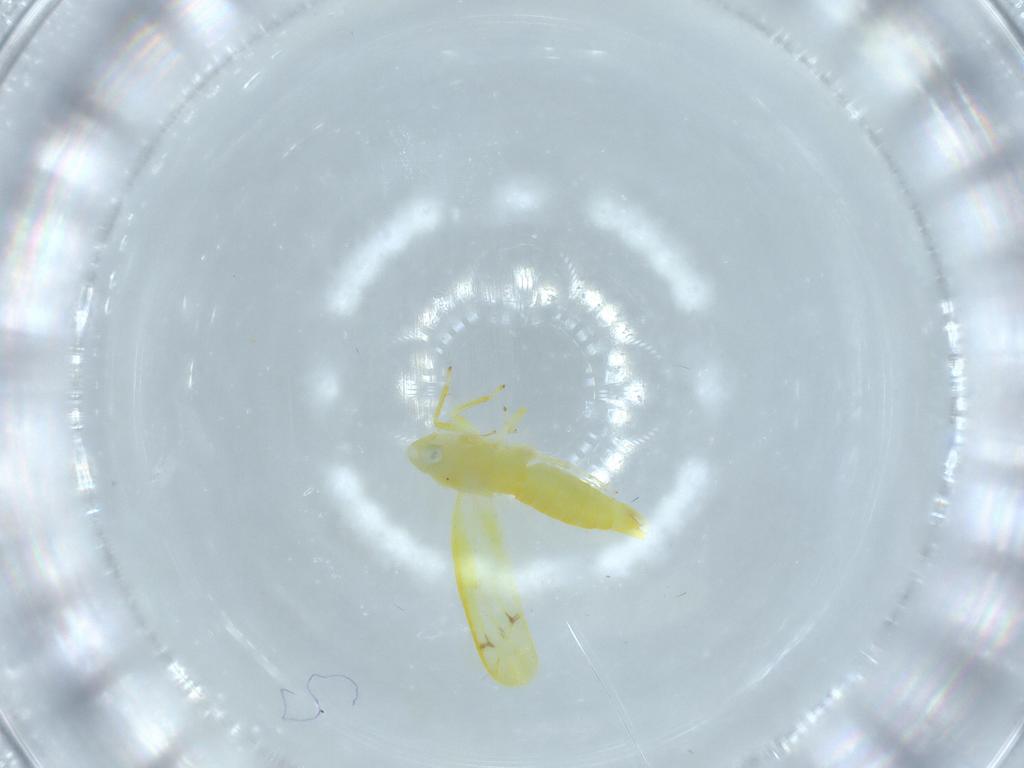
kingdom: Animalia
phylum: Arthropoda
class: Insecta
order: Hemiptera
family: Cicadellidae
